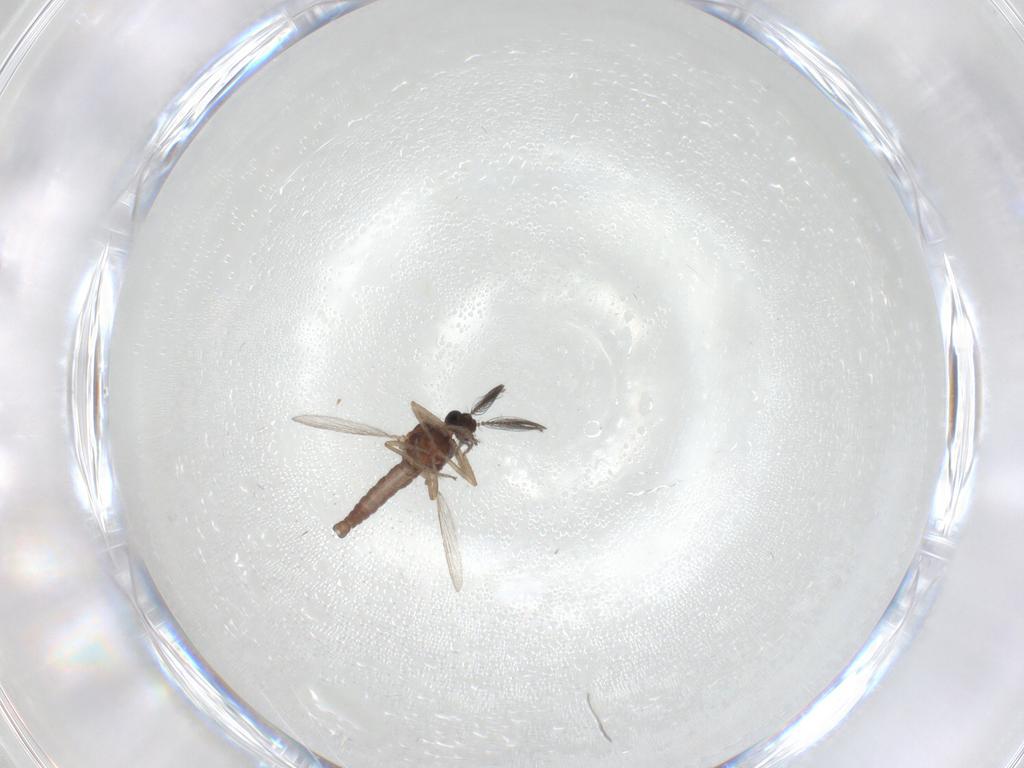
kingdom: Animalia
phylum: Arthropoda
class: Insecta
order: Diptera
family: Mycetophilidae
